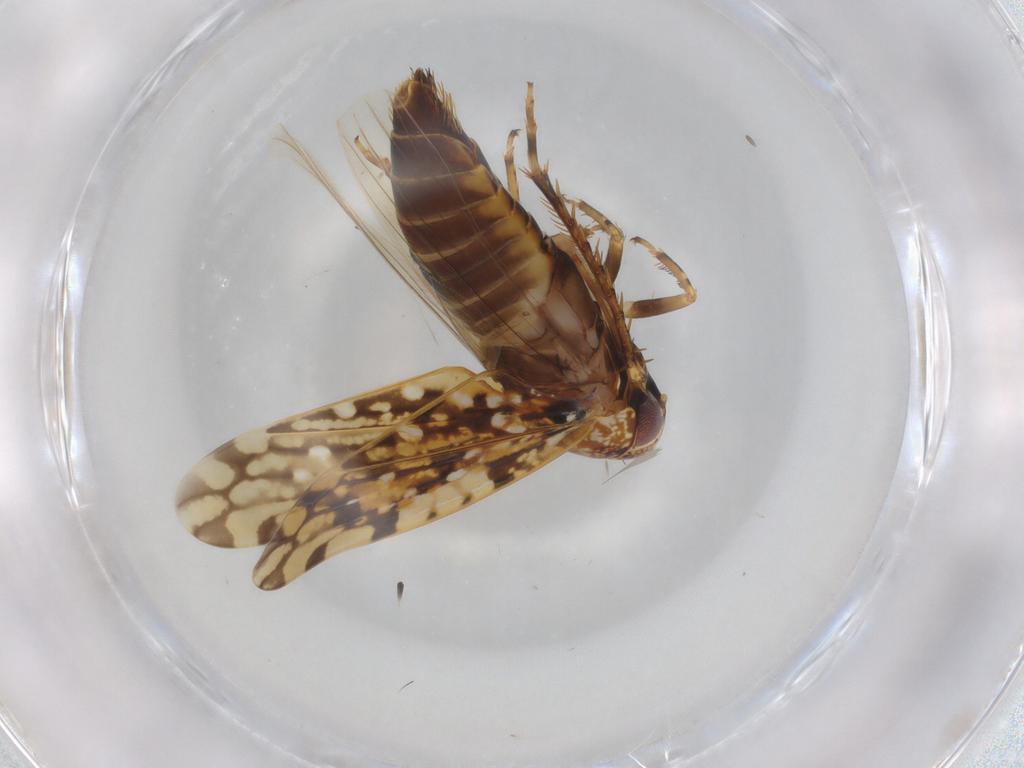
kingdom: Animalia
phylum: Arthropoda
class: Insecta
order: Hemiptera
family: Cicadellidae
